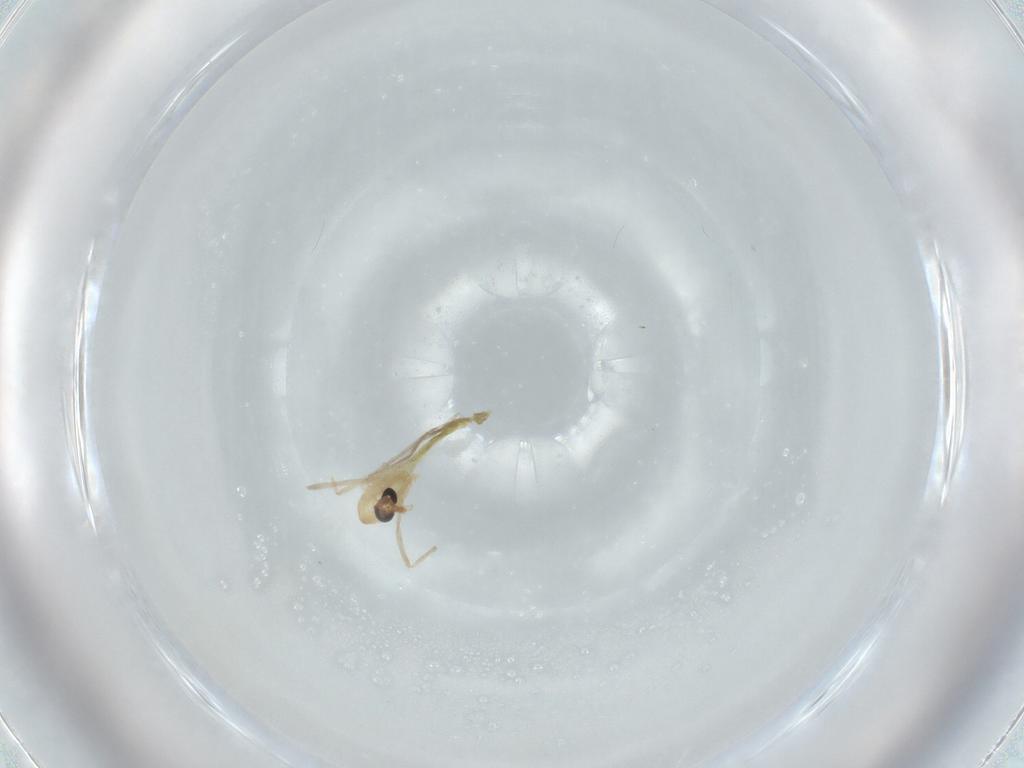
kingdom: Animalia
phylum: Arthropoda
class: Insecta
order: Diptera
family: Chironomidae
